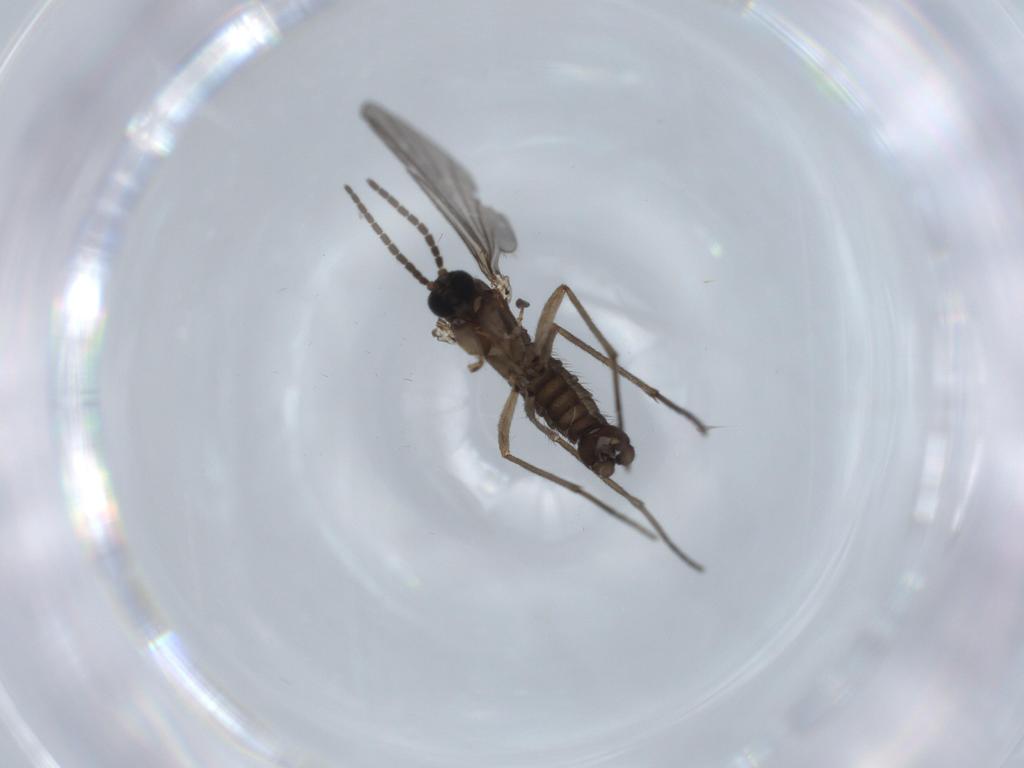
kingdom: Animalia
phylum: Arthropoda
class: Insecta
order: Diptera
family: Sciaridae
